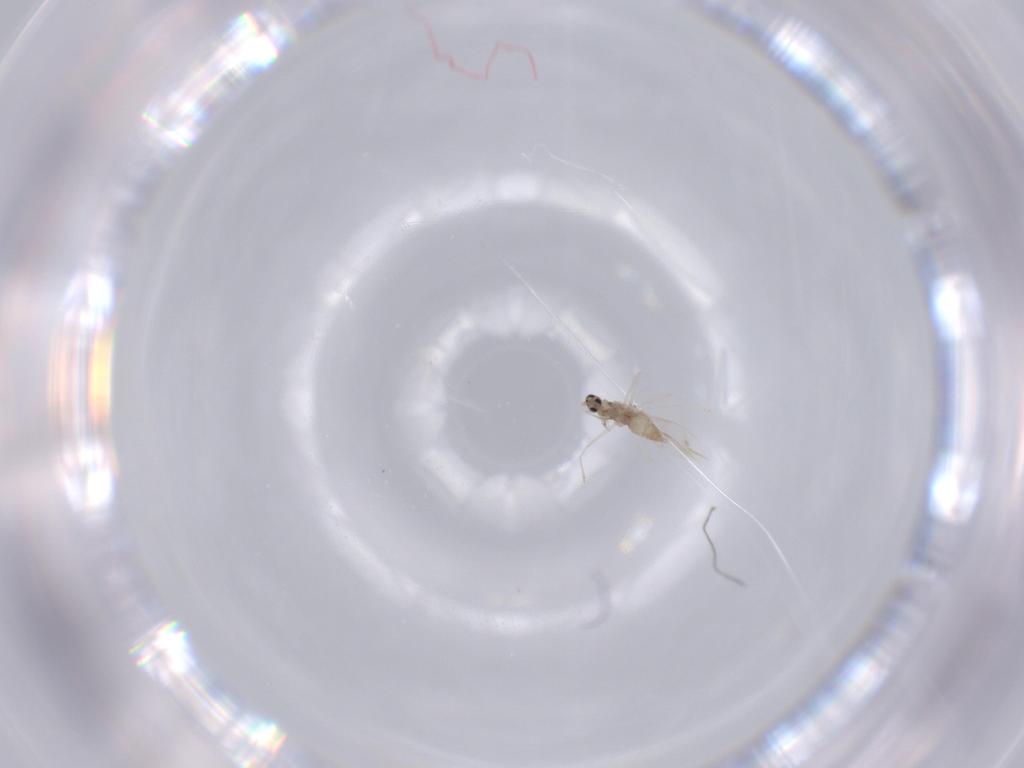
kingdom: Animalia
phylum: Arthropoda
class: Insecta
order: Diptera
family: Cecidomyiidae
